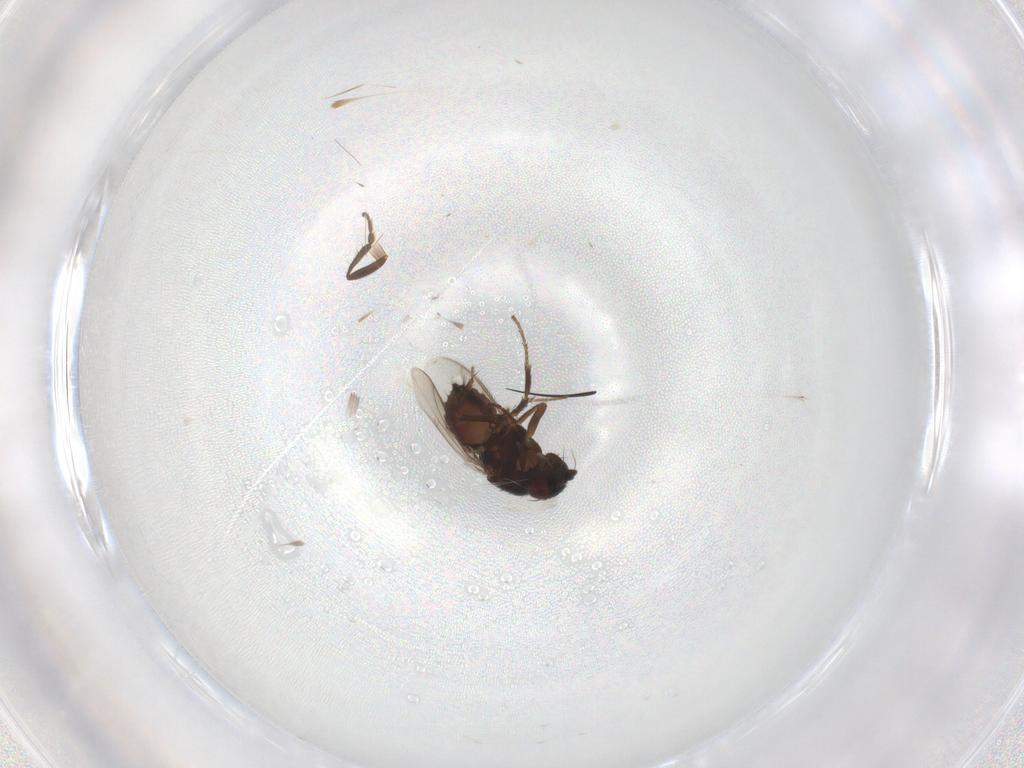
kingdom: Animalia
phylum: Arthropoda
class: Insecta
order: Diptera
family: Sphaeroceridae
